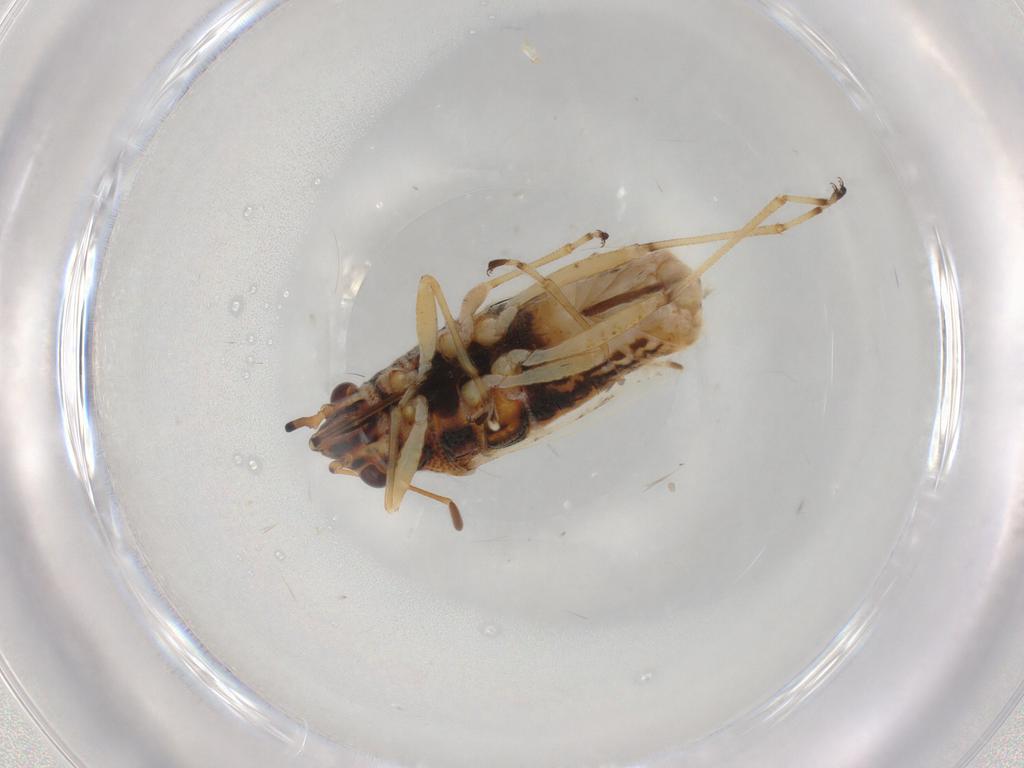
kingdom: Animalia
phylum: Arthropoda
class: Insecta
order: Hemiptera
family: Lygaeidae
